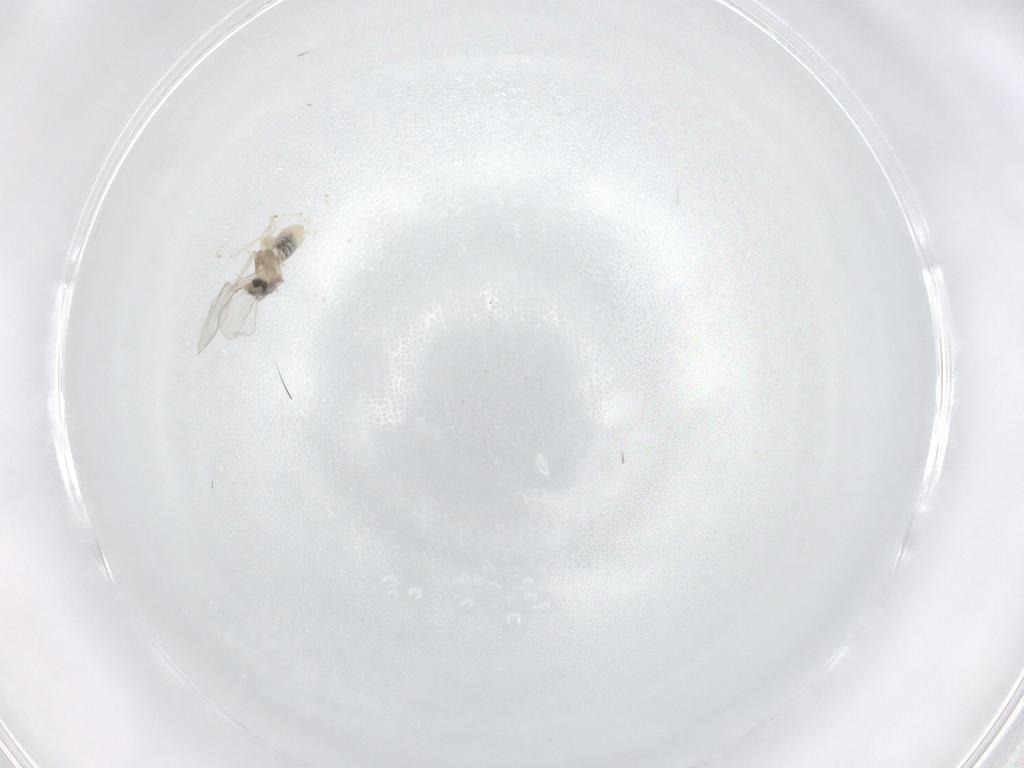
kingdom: Animalia
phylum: Arthropoda
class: Insecta
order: Diptera
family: Cecidomyiidae
